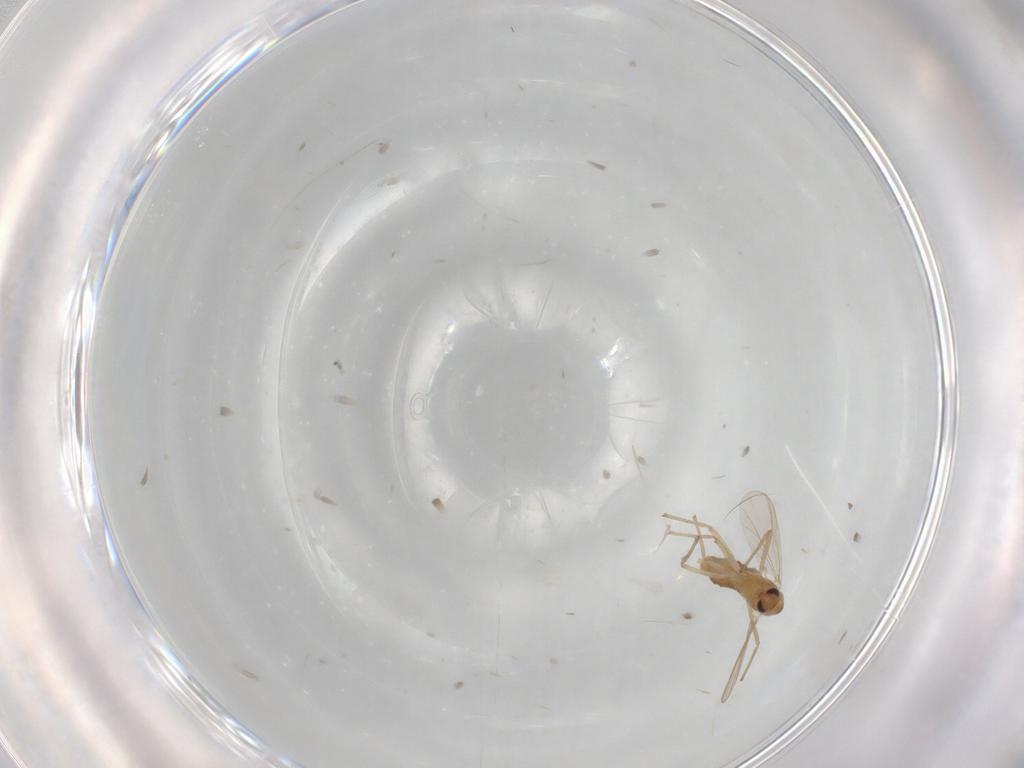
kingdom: Animalia
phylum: Arthropoda
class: Insecta
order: Diptera
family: Chironomidae
